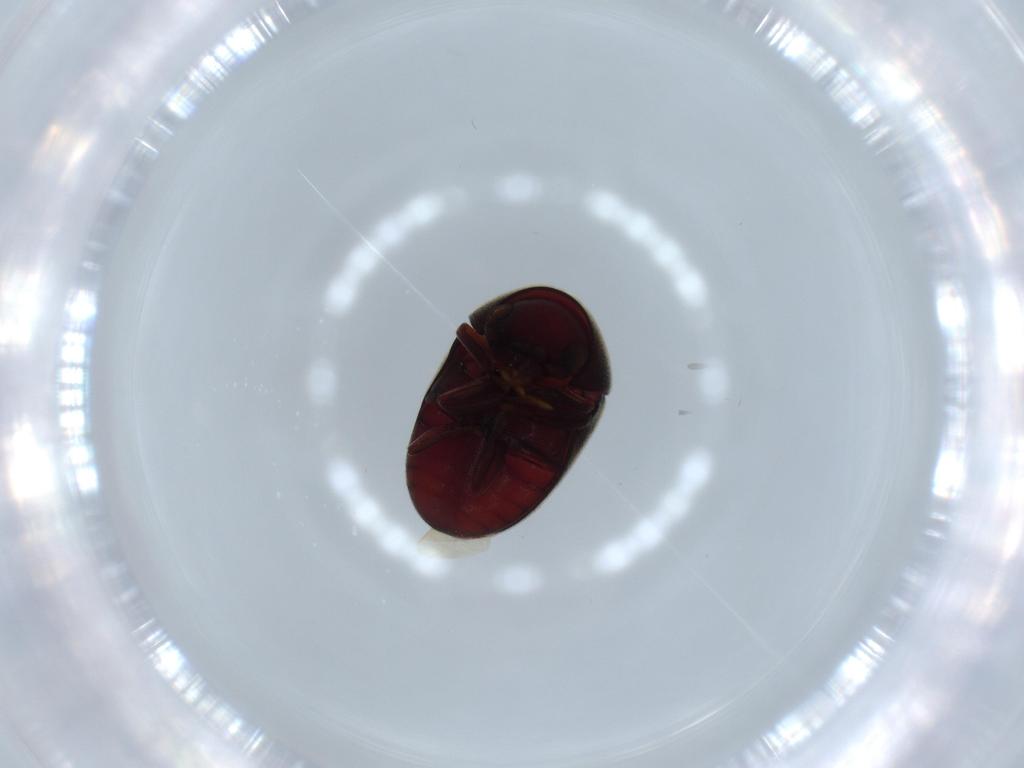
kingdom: Animalia
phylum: Arthropoda
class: Insecta
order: Coleoptera
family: Ptinidae
